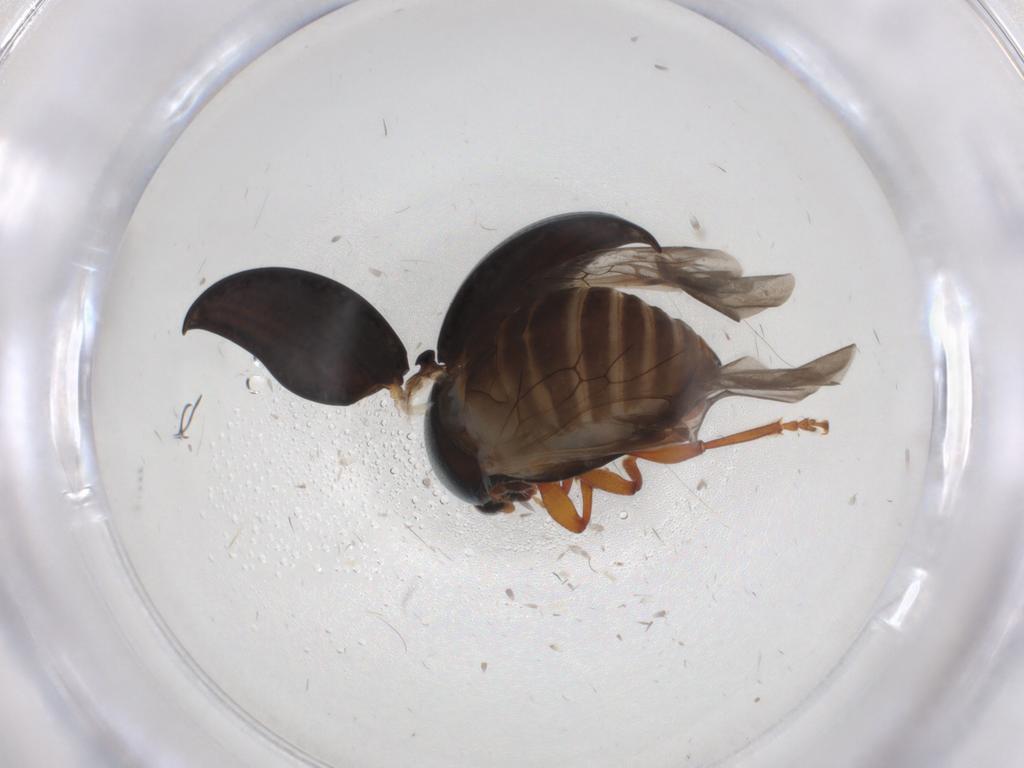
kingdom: Animalia
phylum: Arthropoda
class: Insecta
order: Coleoptera
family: Chrysomelidae
